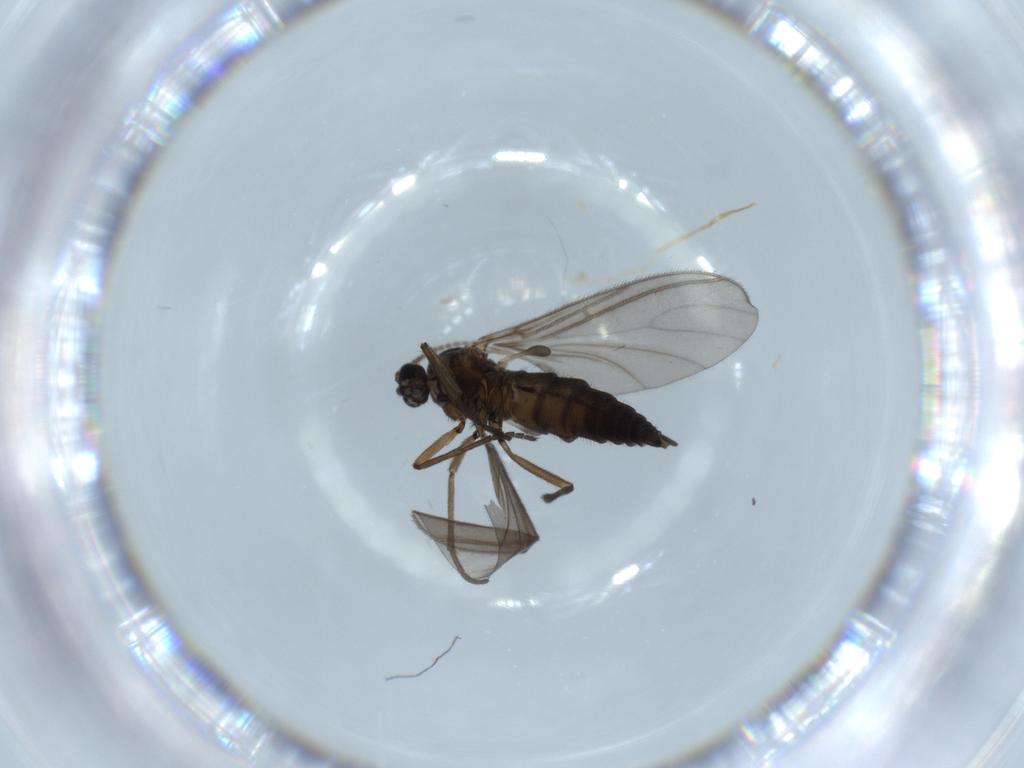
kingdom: Animalia
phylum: Arthropoda
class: Insecta
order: Diptera
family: Sciaridae
